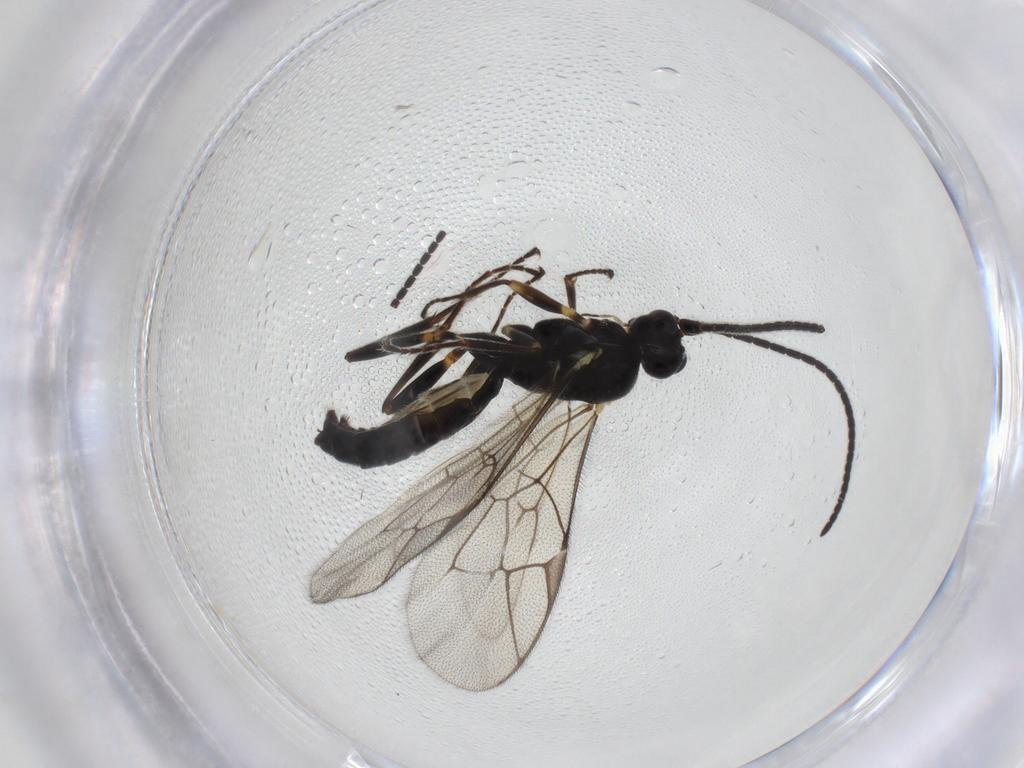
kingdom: Animalia
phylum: Arthropoda
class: Insecta
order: Hymenoptera
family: Ichneumonidae
